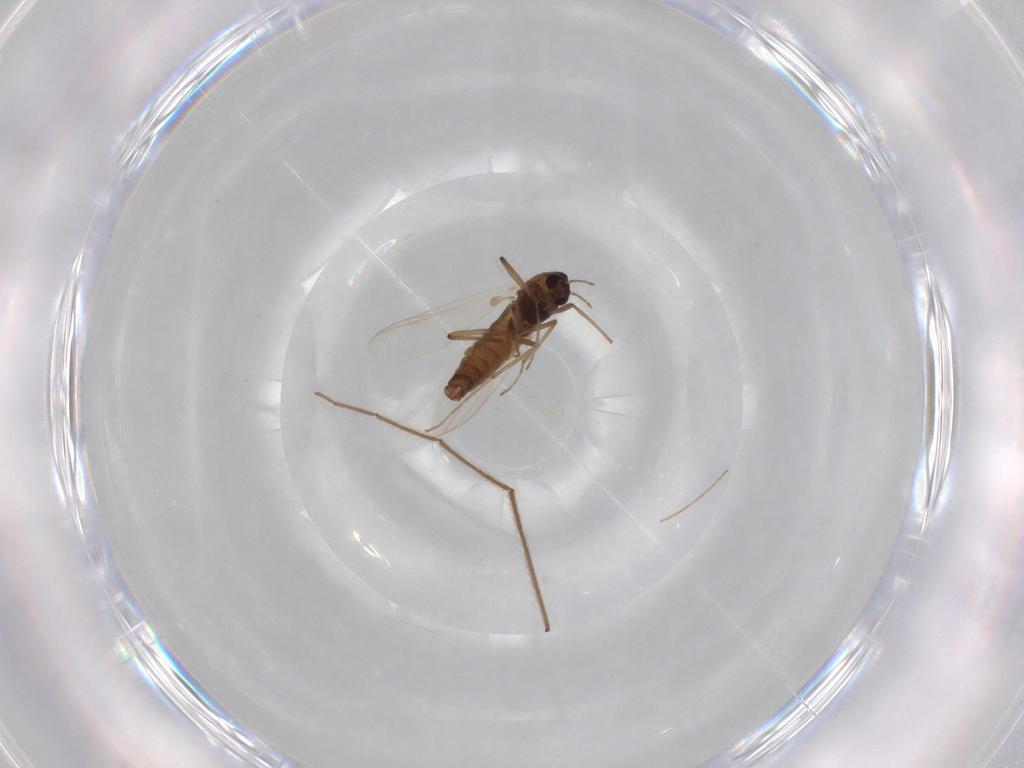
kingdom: Animalia
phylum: Arthropoda
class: Insecta
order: Diptera
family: Chironomidae
